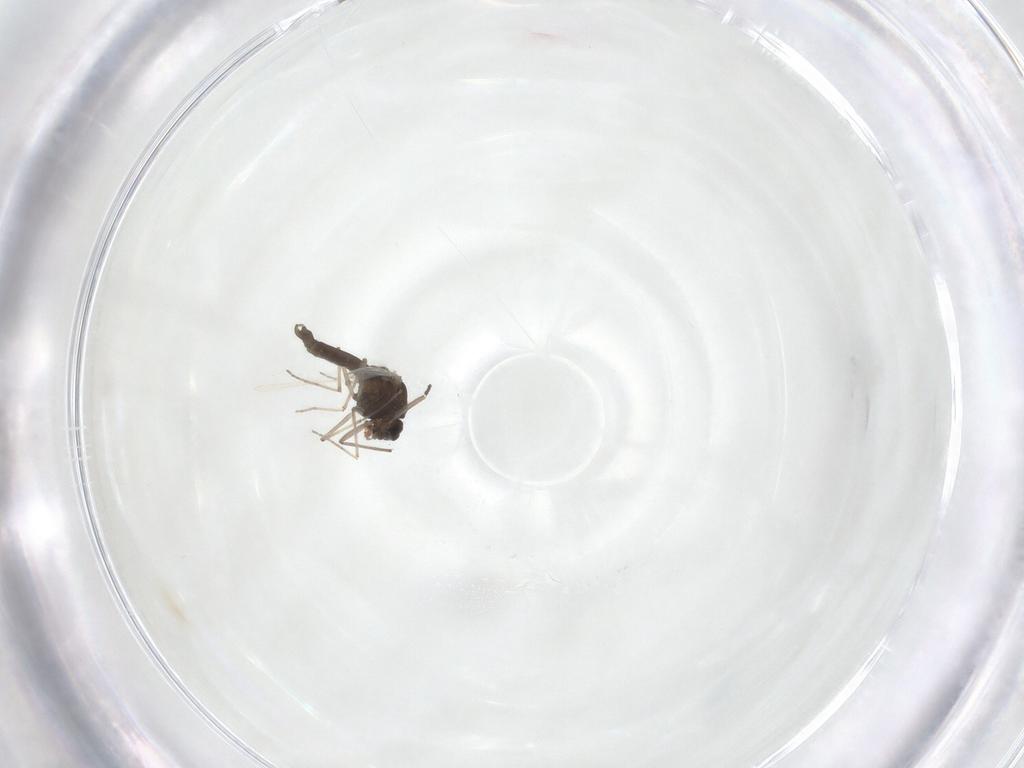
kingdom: Animalia
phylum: Arthropoda
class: Insecta
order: Diptera
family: Chironomidae
